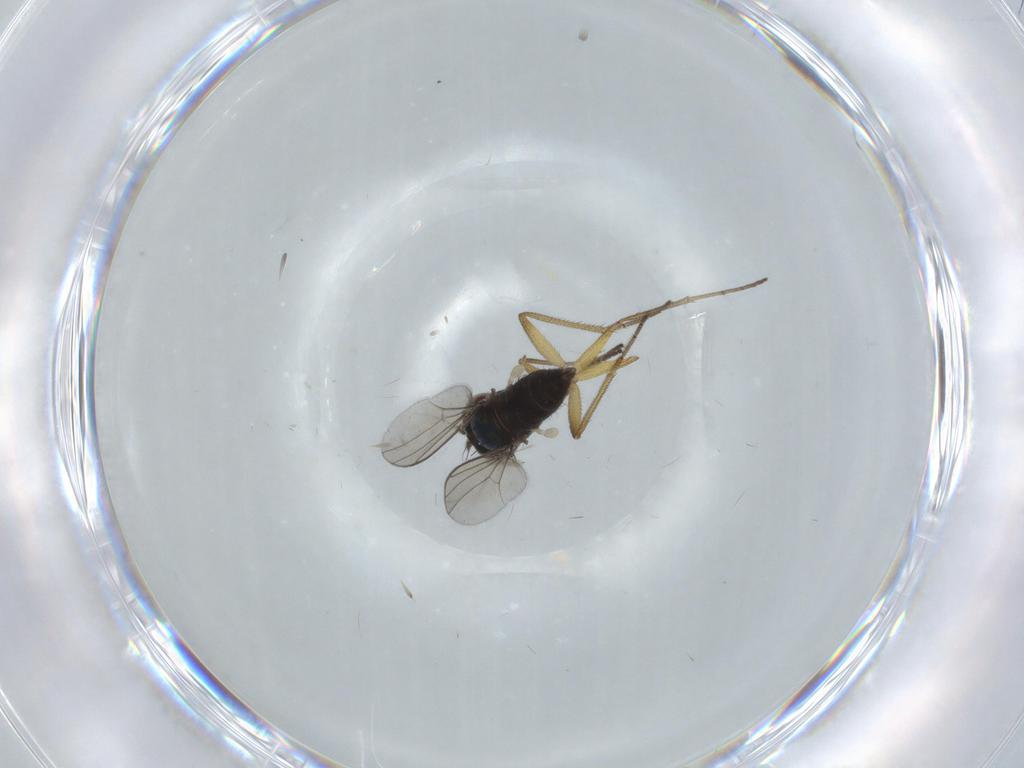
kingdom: Animalia
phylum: Arthropoda
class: Insecta
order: Diptera
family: Dolichopodidae
